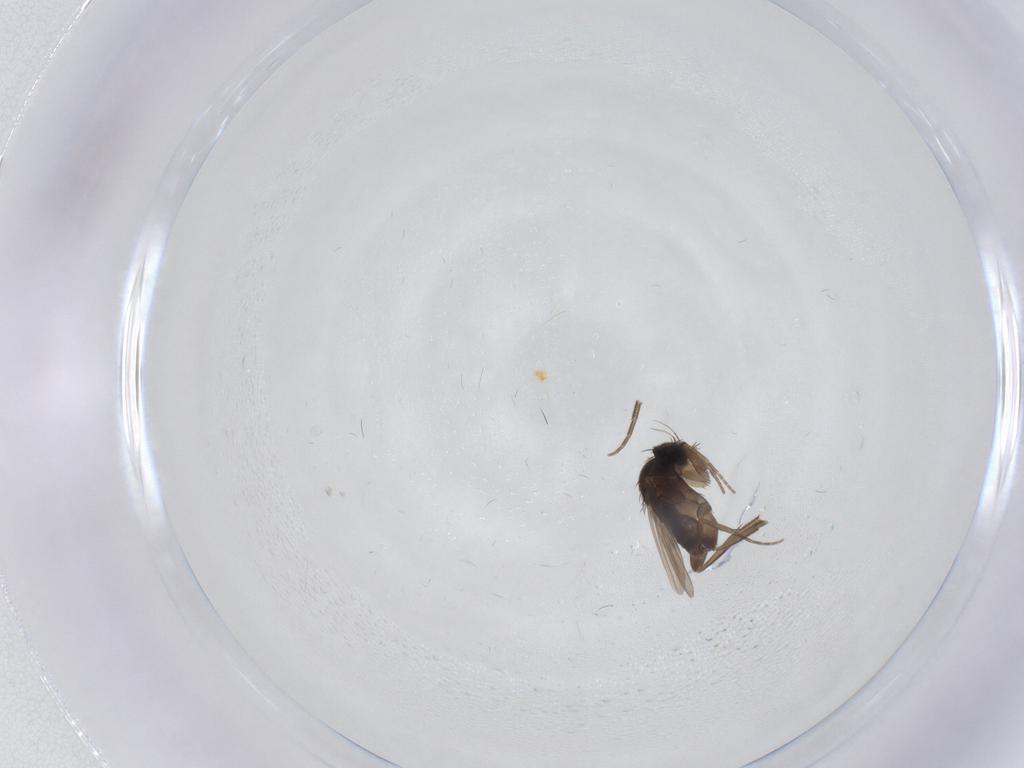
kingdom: Animalia
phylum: Arthropoda
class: Insecta
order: Diptera
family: Phoridae
